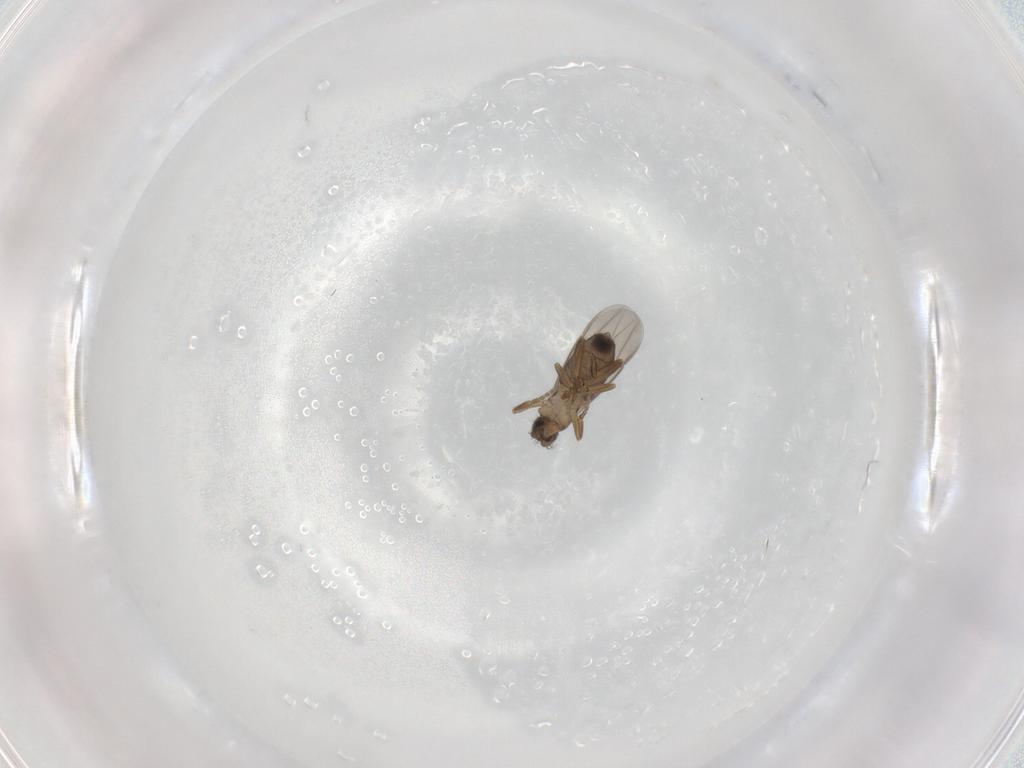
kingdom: Animalia
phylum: Arthropoda
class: Insecta
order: Diptera
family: Phoridae
